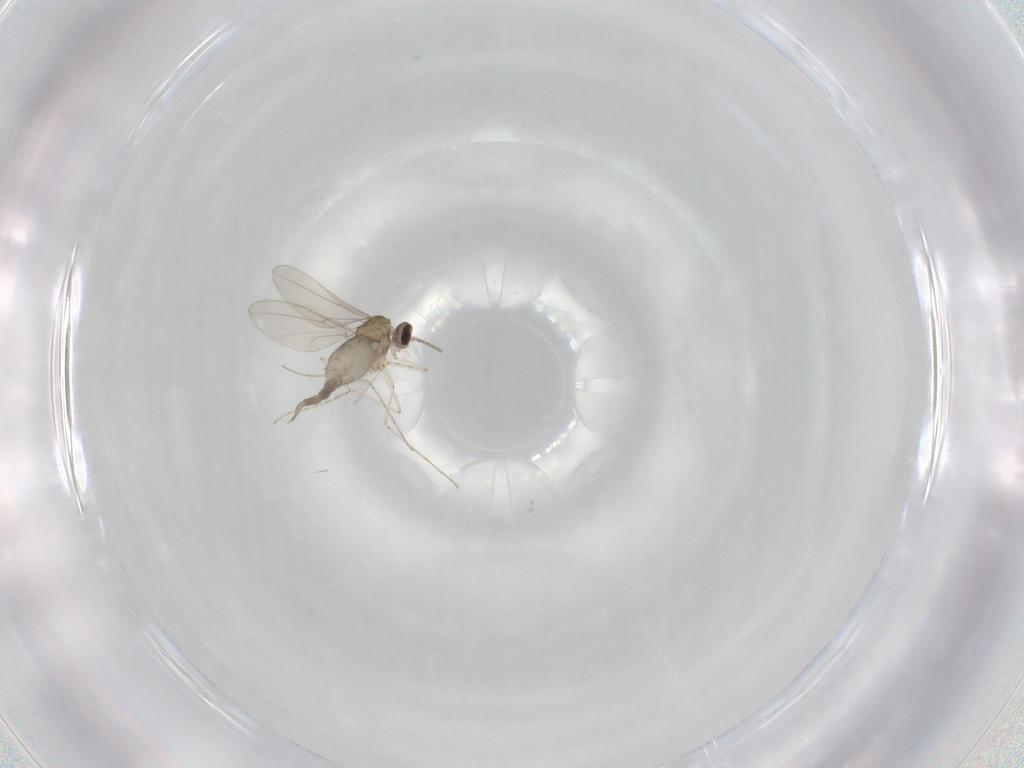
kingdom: Animalia
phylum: Arthropoda
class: Insecta
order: Diptera
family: Cecidomyiidae
